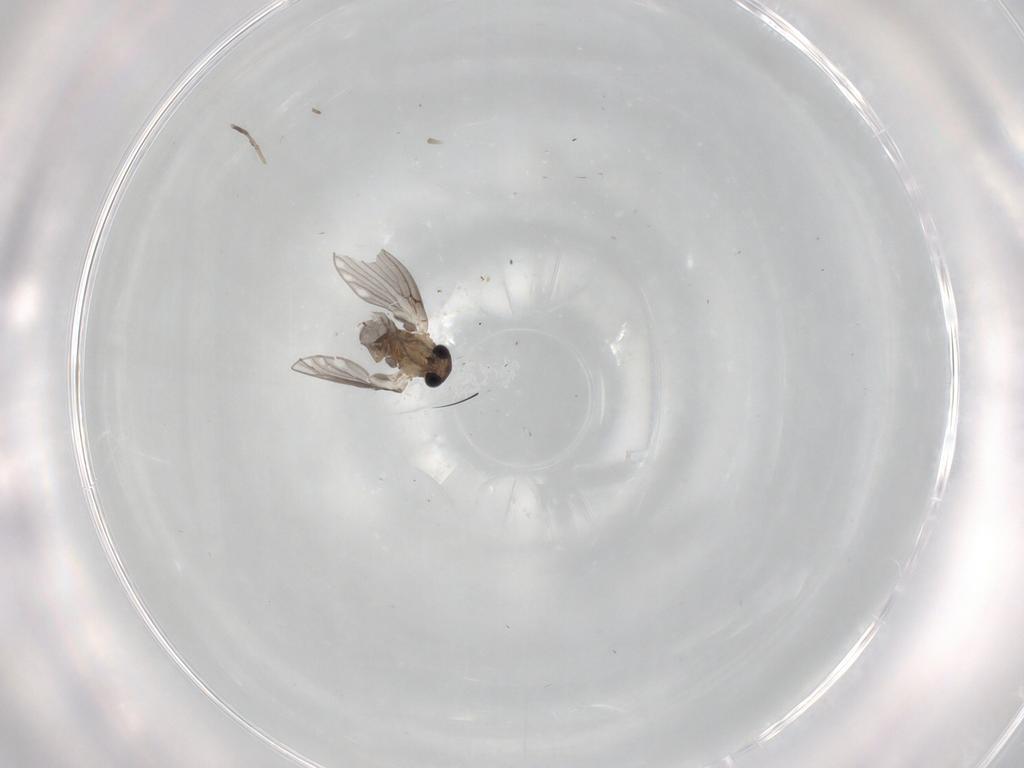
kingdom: Animalia
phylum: Arthropoda
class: Insecta
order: Diptera
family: Psychodidae
